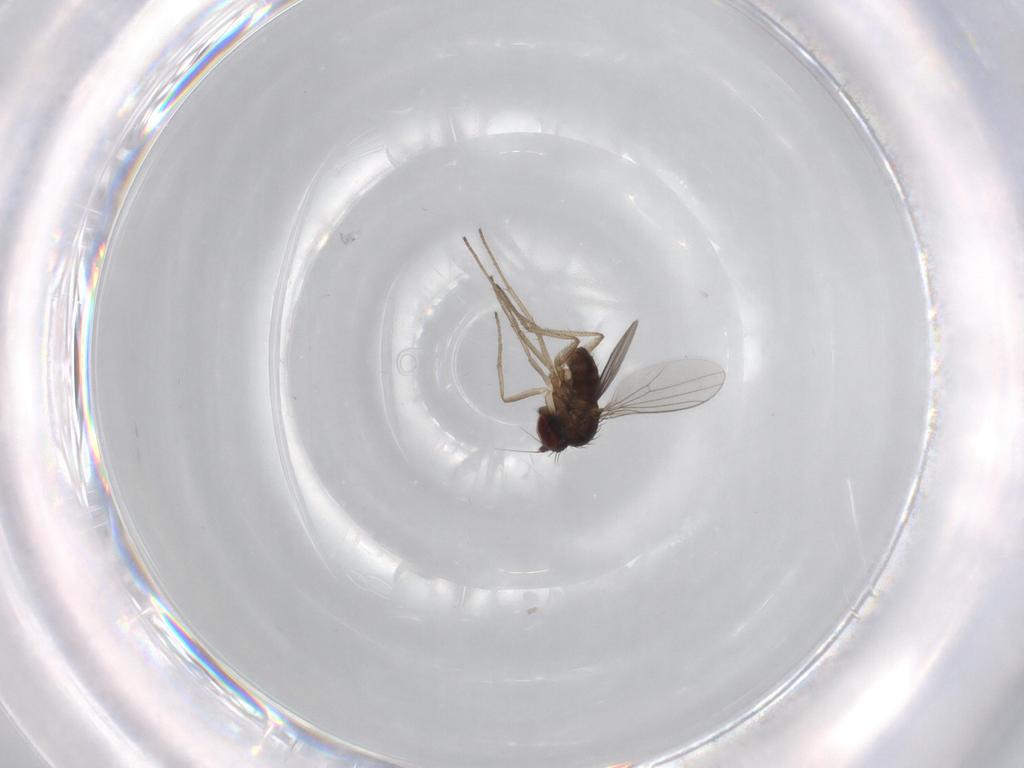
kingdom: Animalia
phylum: Arthropoda
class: Insecta
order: Diptera
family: Dolichopodidae
